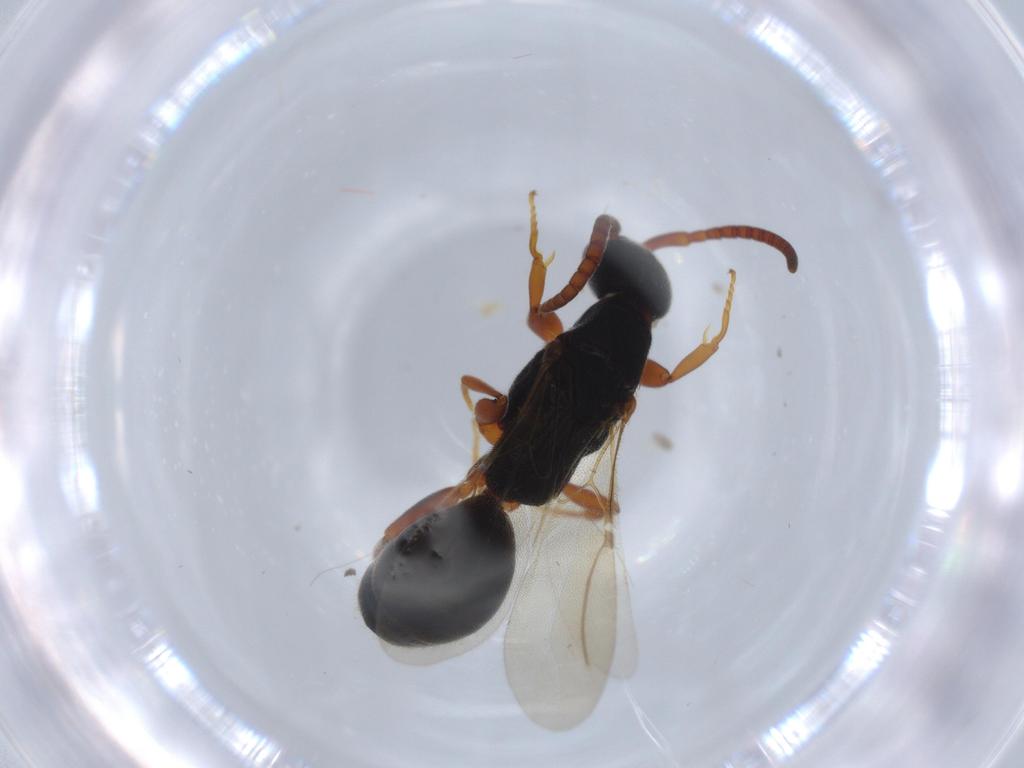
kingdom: Animalia
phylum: Arthropoda
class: Insecta
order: Hymenoptera
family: Bethylidae
